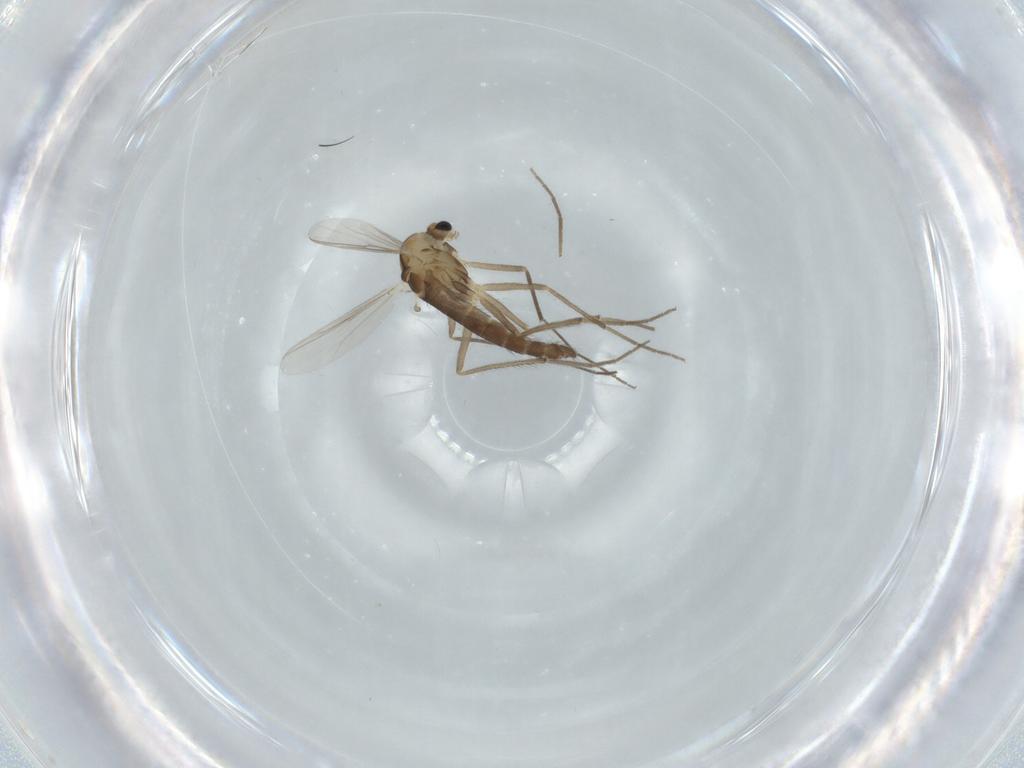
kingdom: Animalia
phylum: Arthropoda
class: Insecta
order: Diptera
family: Chironomidae
